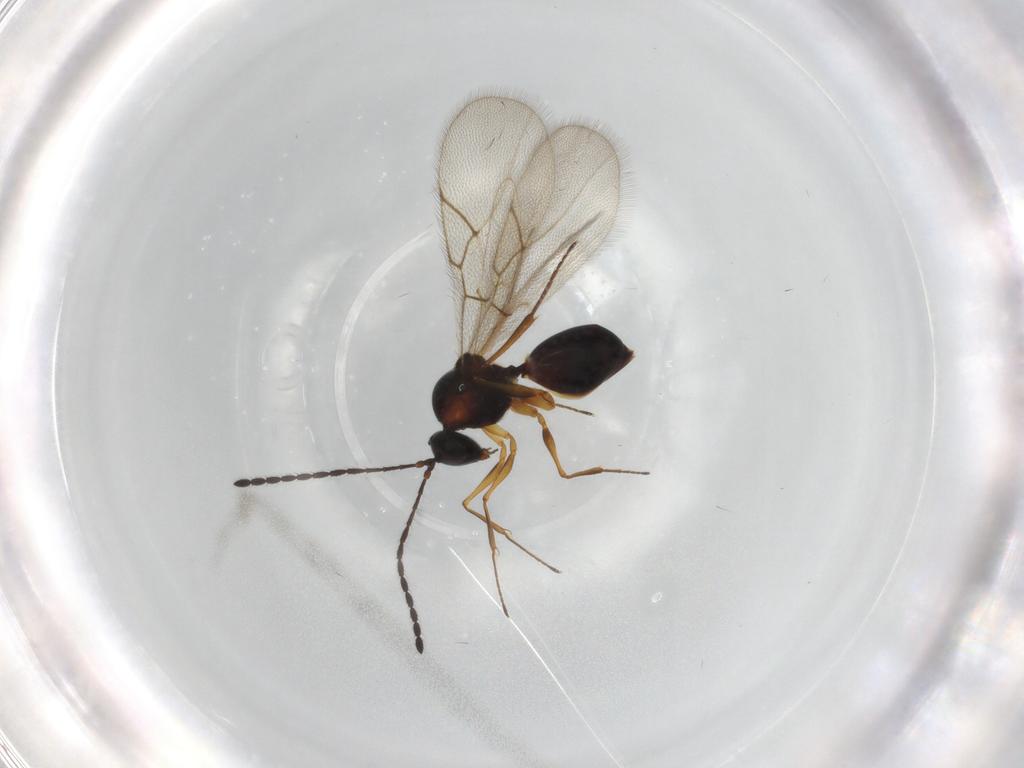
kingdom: Animalia
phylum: Arthropoda
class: Insecta
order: Hymenoptera
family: Figitidae
